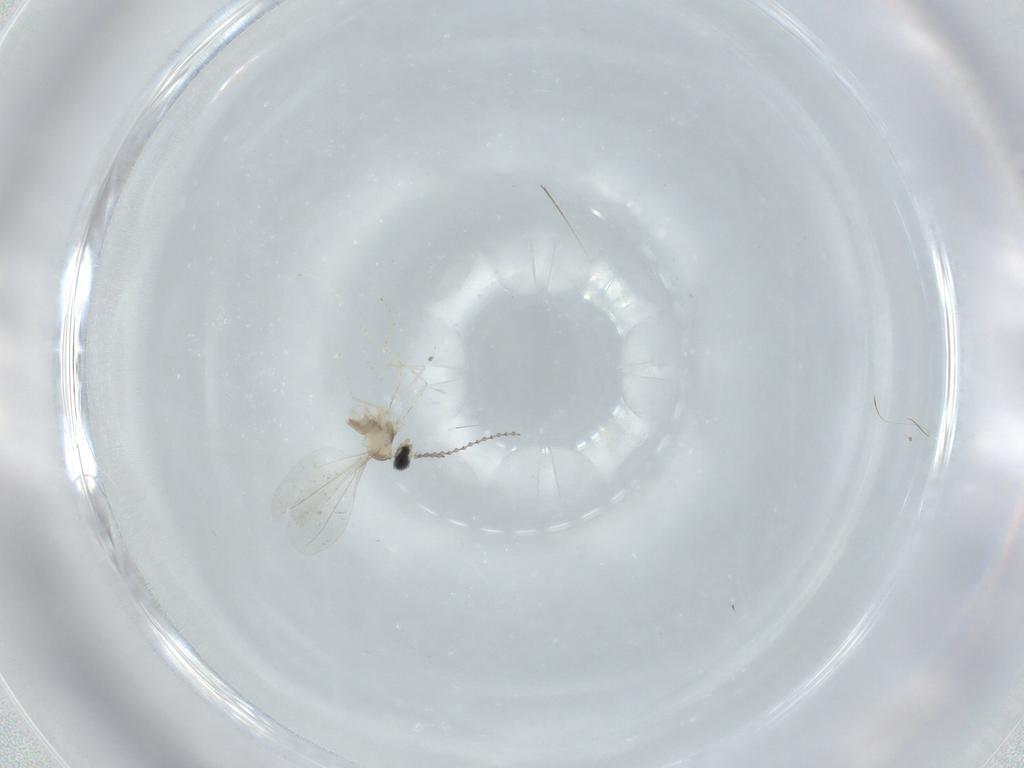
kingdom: Animalia
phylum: Arthropoda
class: Insecta
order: Diptera
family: Cecidomyiidae
